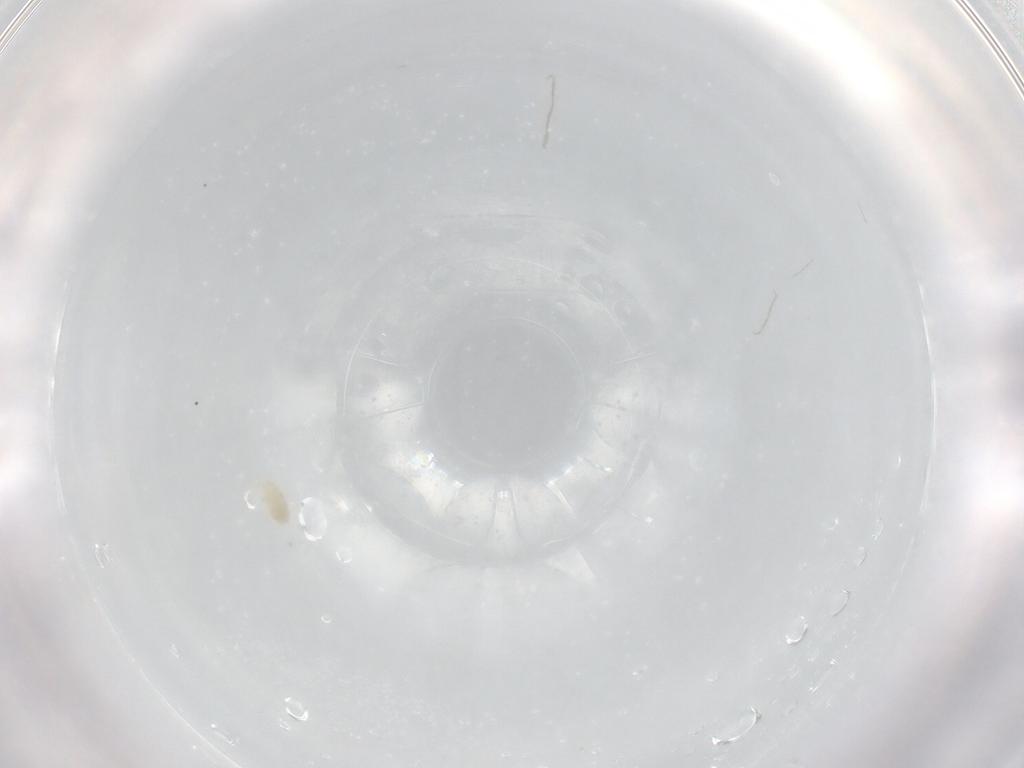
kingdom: Animalia
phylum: Arthropoda
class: Arachnida
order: Trombidiformes
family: Eupodidae
